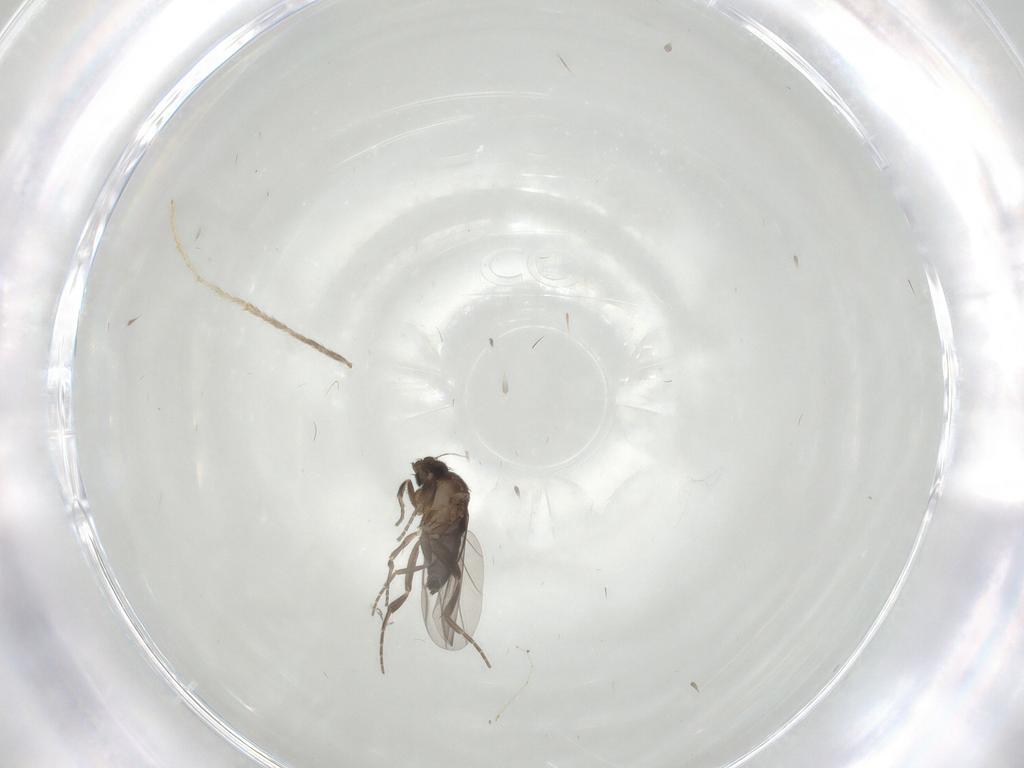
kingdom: Animalia
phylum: Arthropoda
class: Insecta
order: Diptera
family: Phoridae
